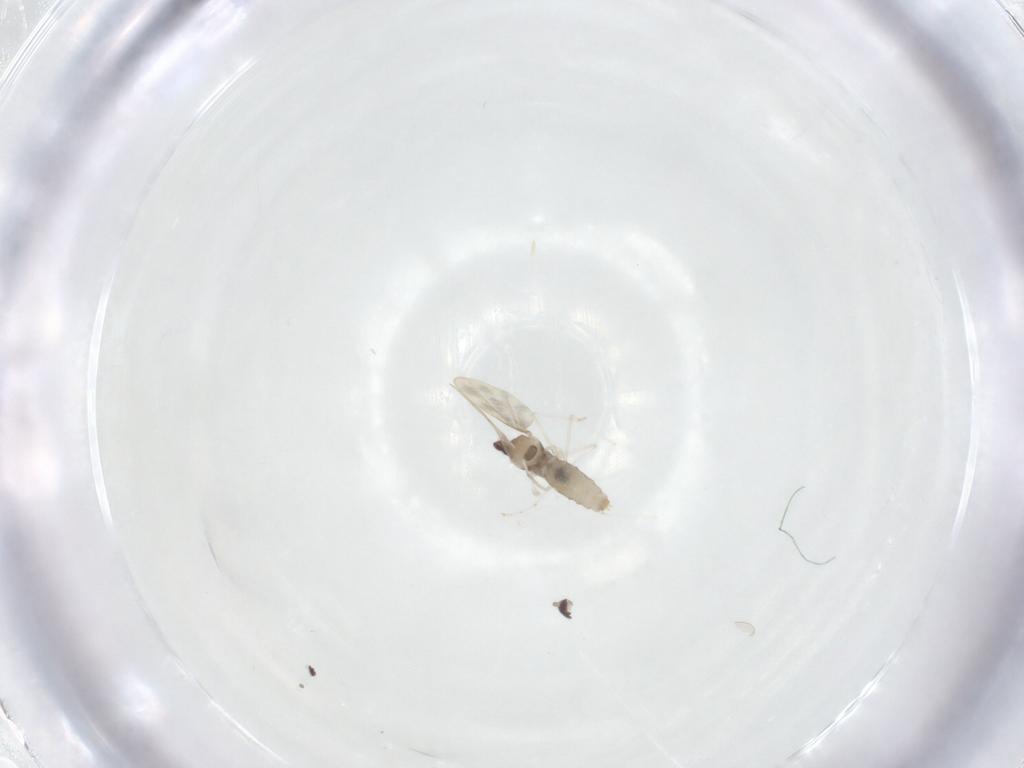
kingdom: Animalia
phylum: Arthropoda
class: Insecta
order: Diptera
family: Cecidomyiidae
